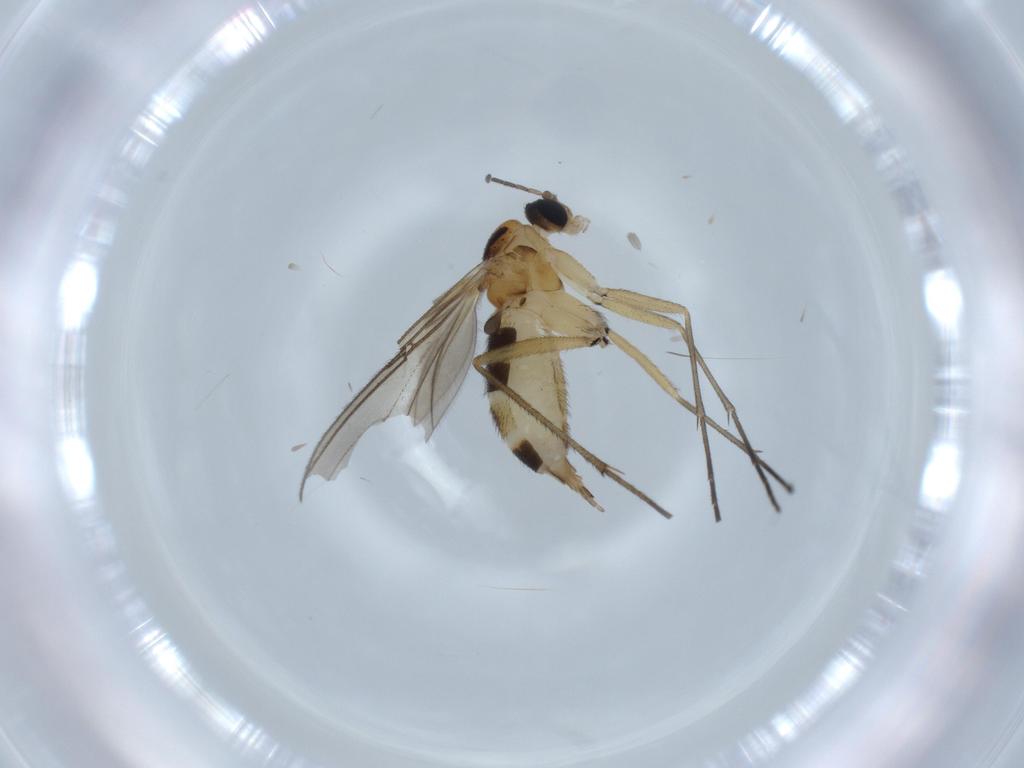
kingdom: Animalia
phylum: Arthropoda
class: Insecta
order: Diptera
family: Sciaridae
